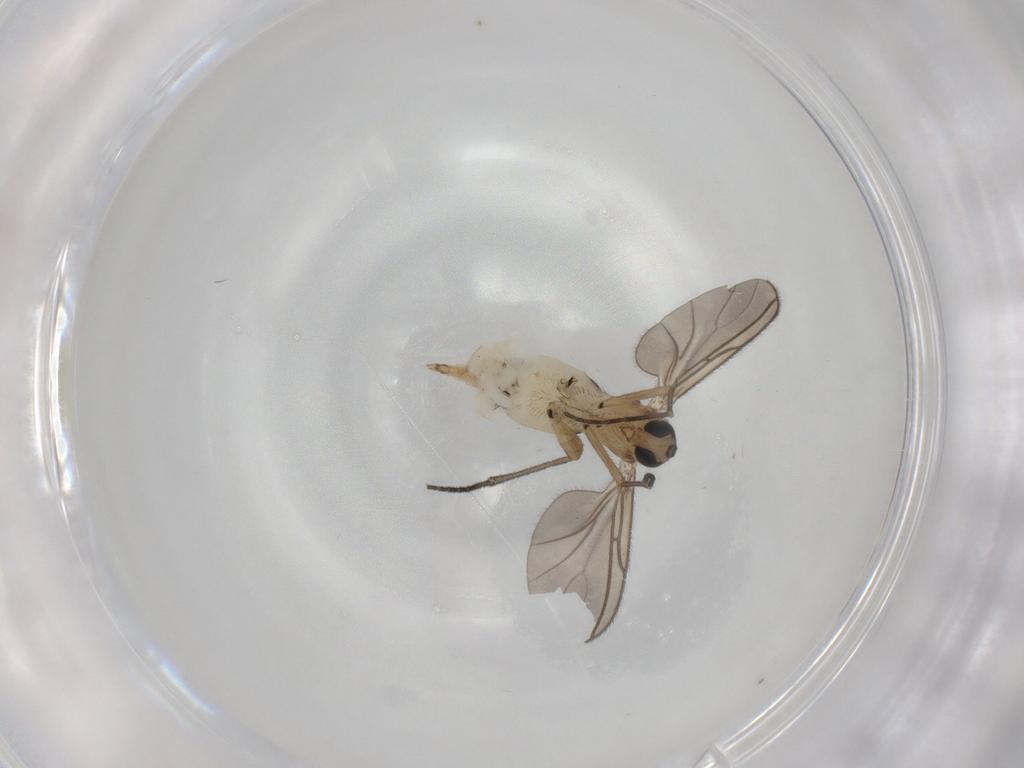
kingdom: Animalia
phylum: Arthropoda
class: Insecta
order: Diptera
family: Sciaridae
